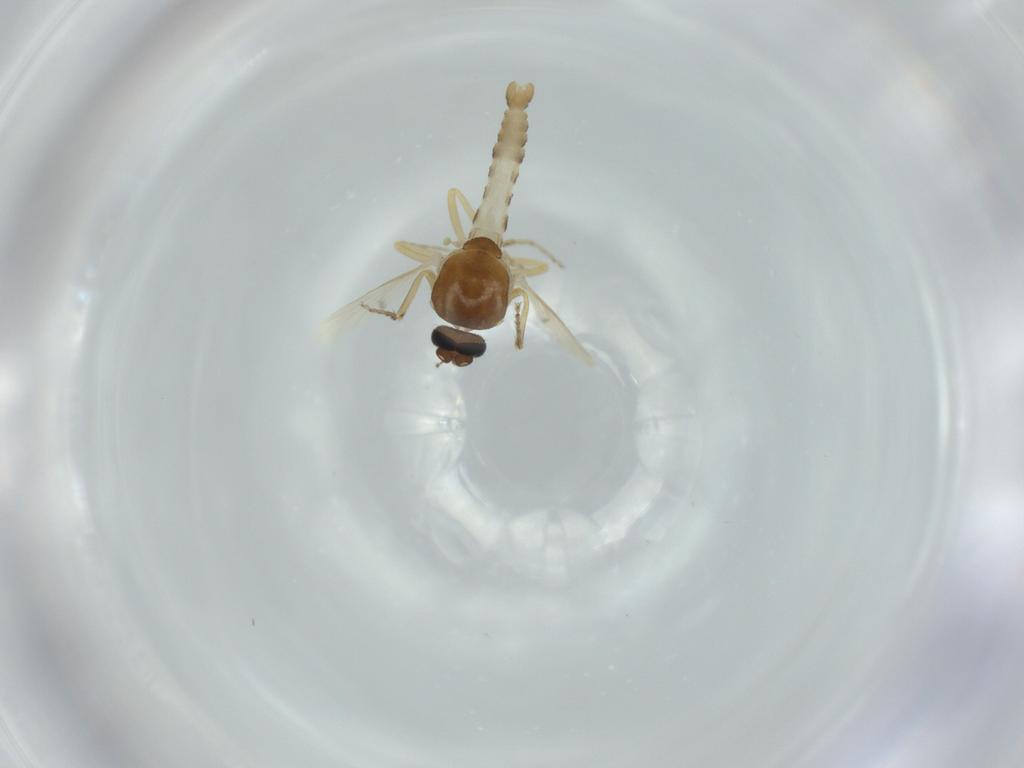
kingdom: Animalia
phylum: Arthropoda
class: Insecta
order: Diptera
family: Ceratopogonidae
